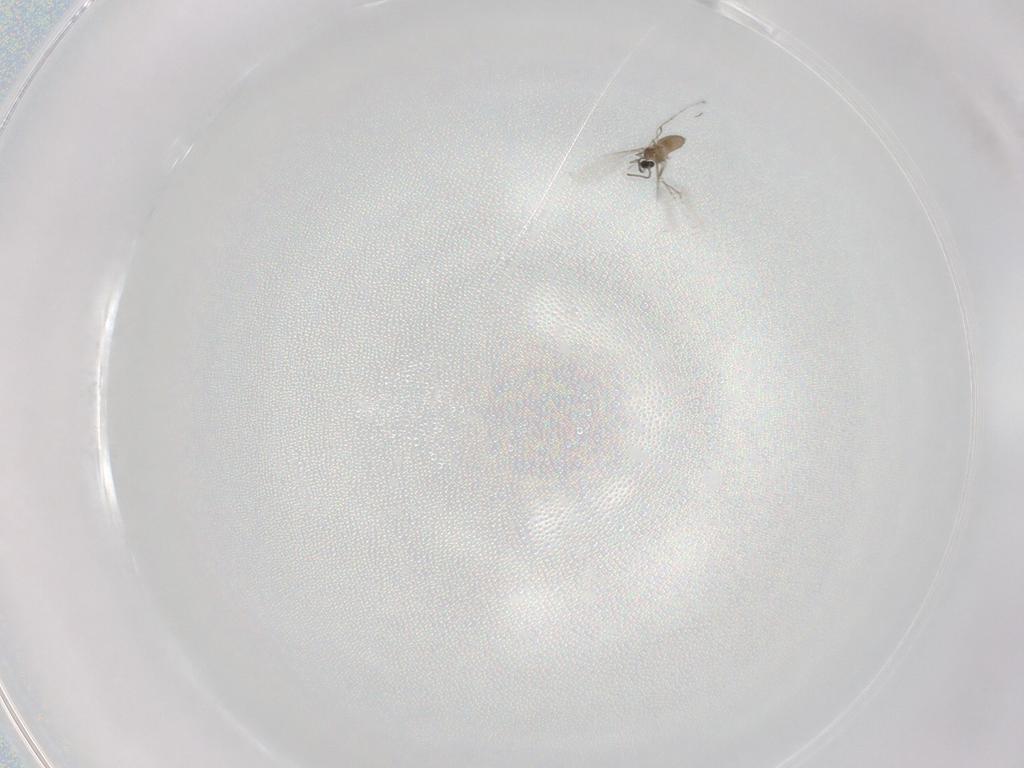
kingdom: Animalia
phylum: Arthropoda
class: Insecta
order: Diptera
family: Cecidomyiidae
